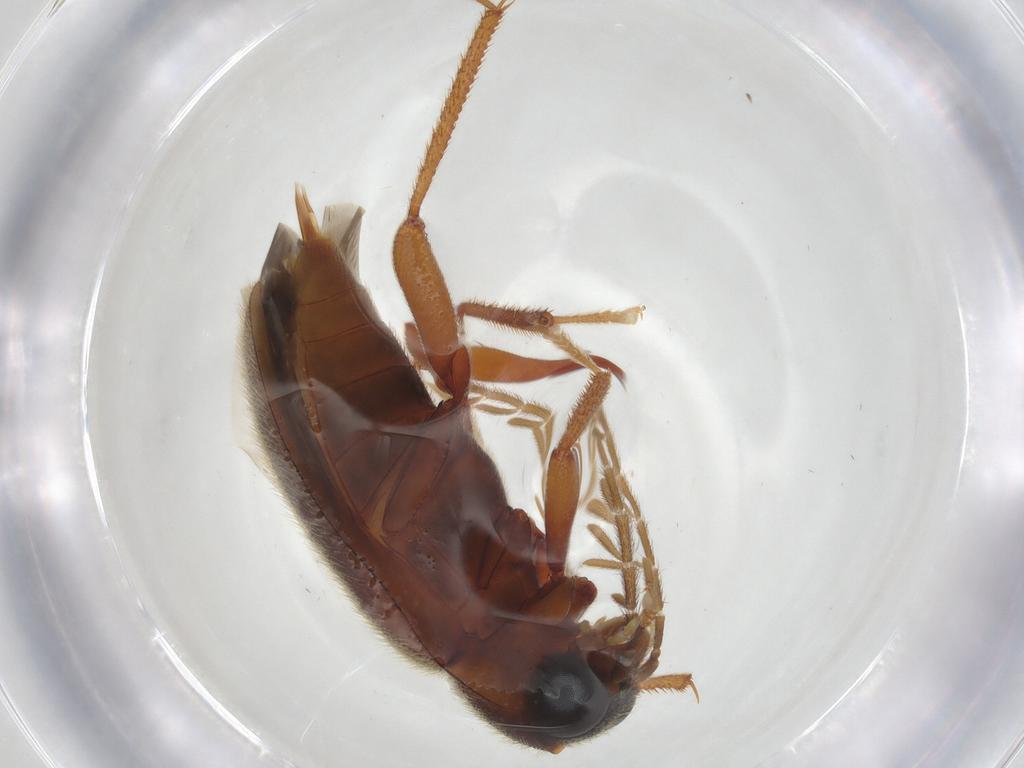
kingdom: Animalia
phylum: Arthropoda
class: Insecta
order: Coleoptera
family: Ptilodactylidae
